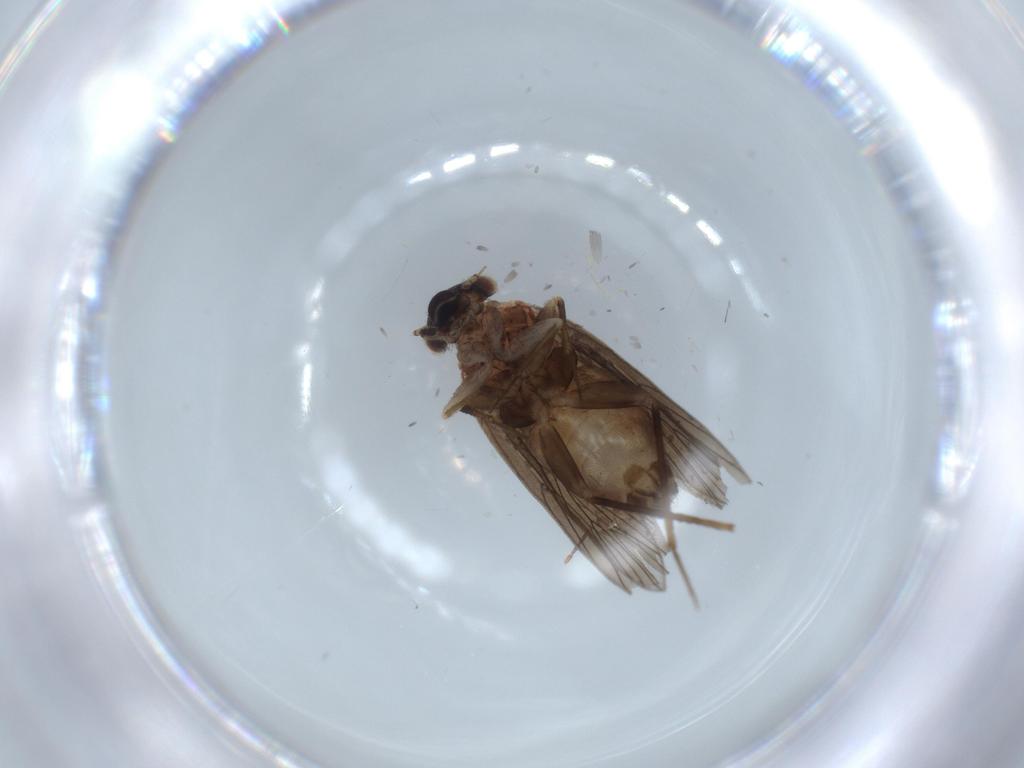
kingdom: Animalia
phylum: Arthropoda
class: Insecta
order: Psocodea
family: Lepidopsocidae
